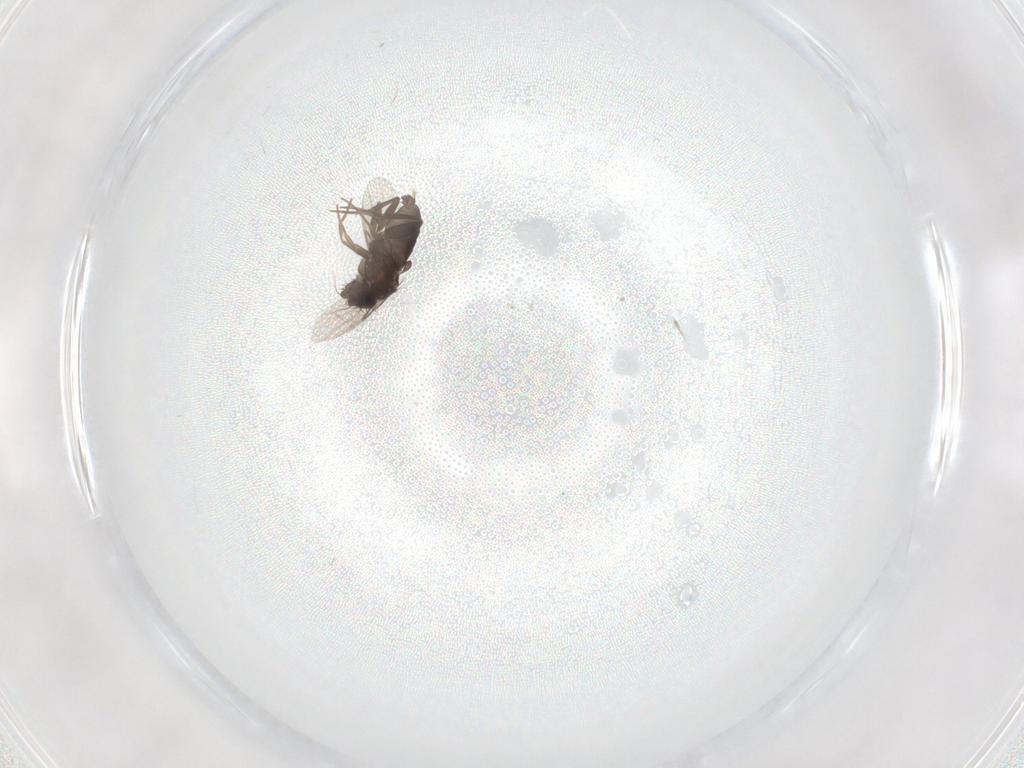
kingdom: Animalia
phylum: Arthropoda
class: Insecta
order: Diptera
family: Phoridae
